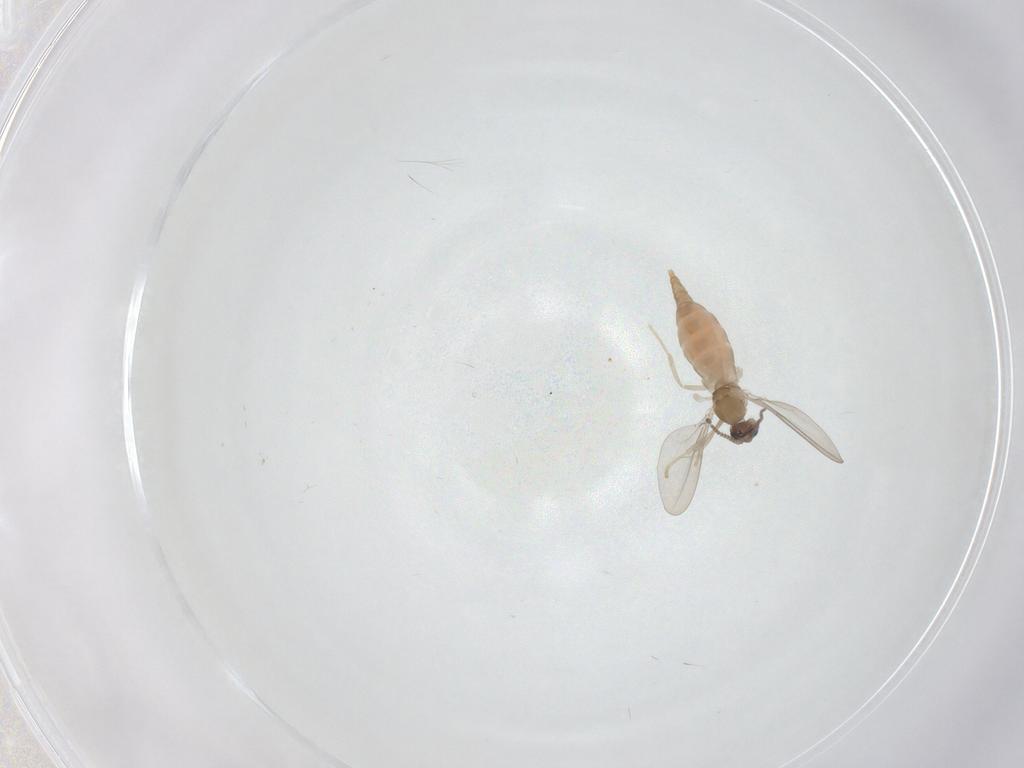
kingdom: Animalia
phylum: Arthropoda
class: Insecta
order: Diptera
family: Cecidomyiidae
